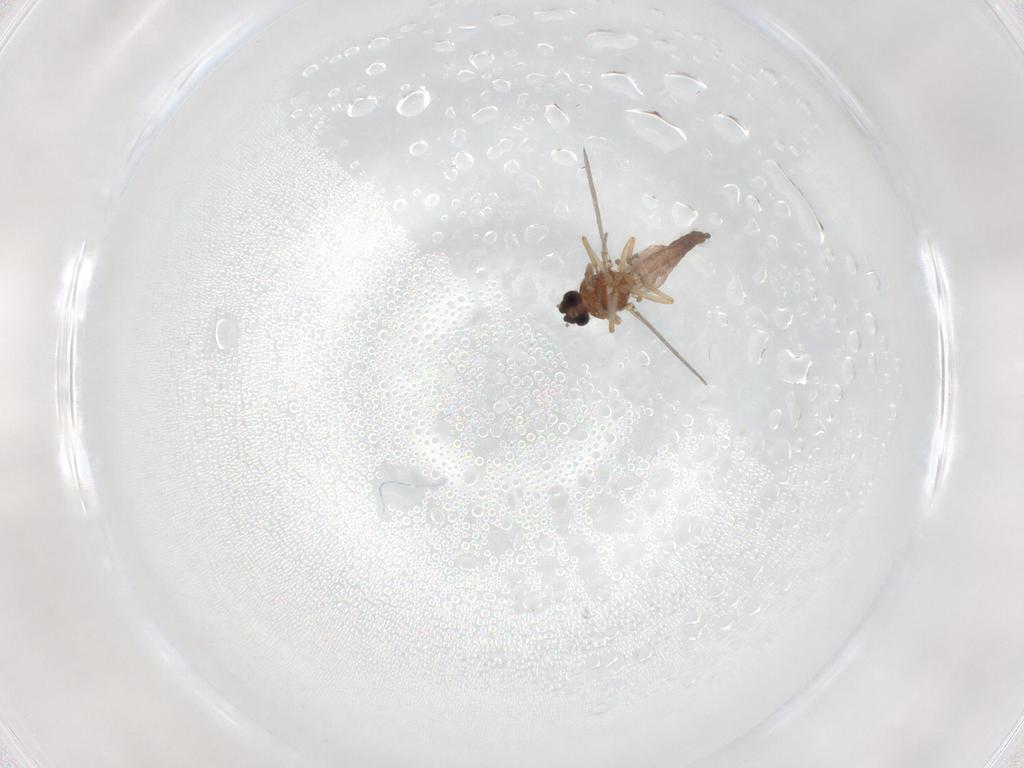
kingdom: Animalia
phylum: Arthropoda
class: Insecta
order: Diptera
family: Ceratopogonidae
